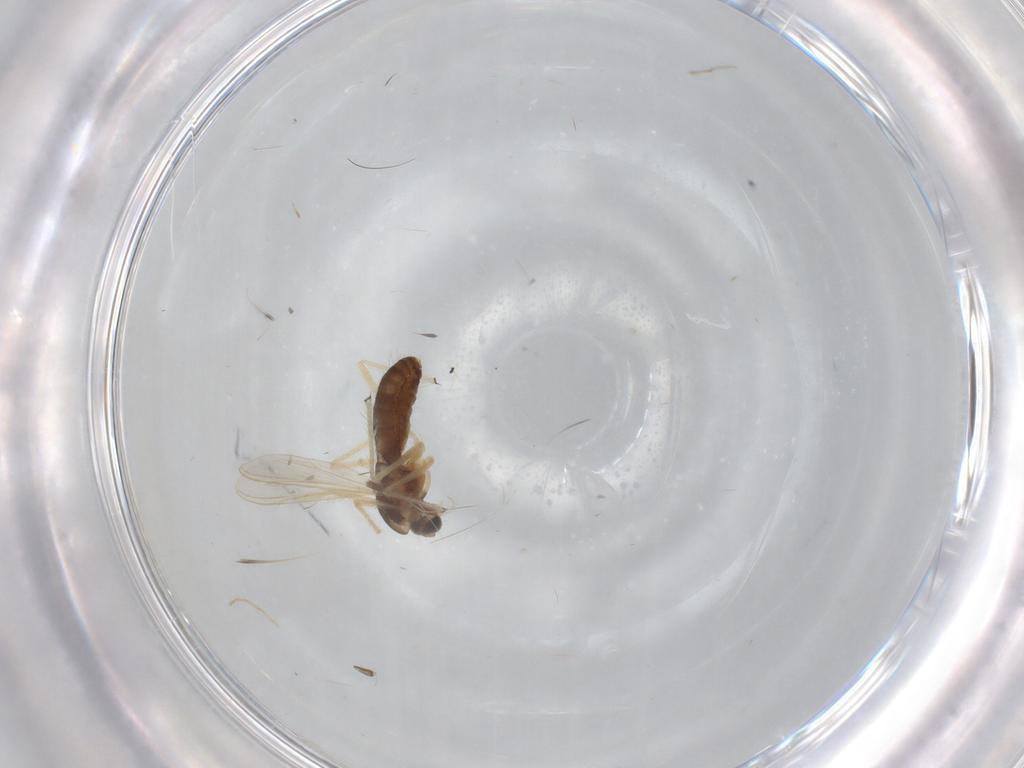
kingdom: Animalia
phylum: Arthropoda
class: Insecta
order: Diptera
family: Chironomidae
